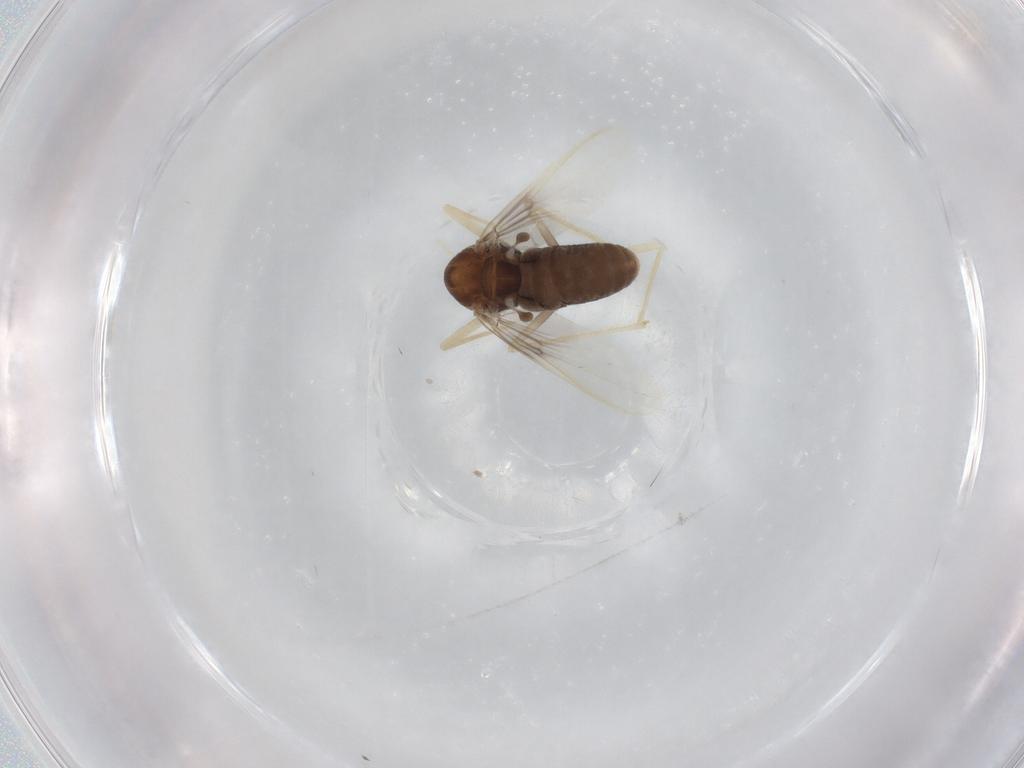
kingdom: Animalia
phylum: Arthropoda
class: Insecta
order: Diptera
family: Chironomidae
